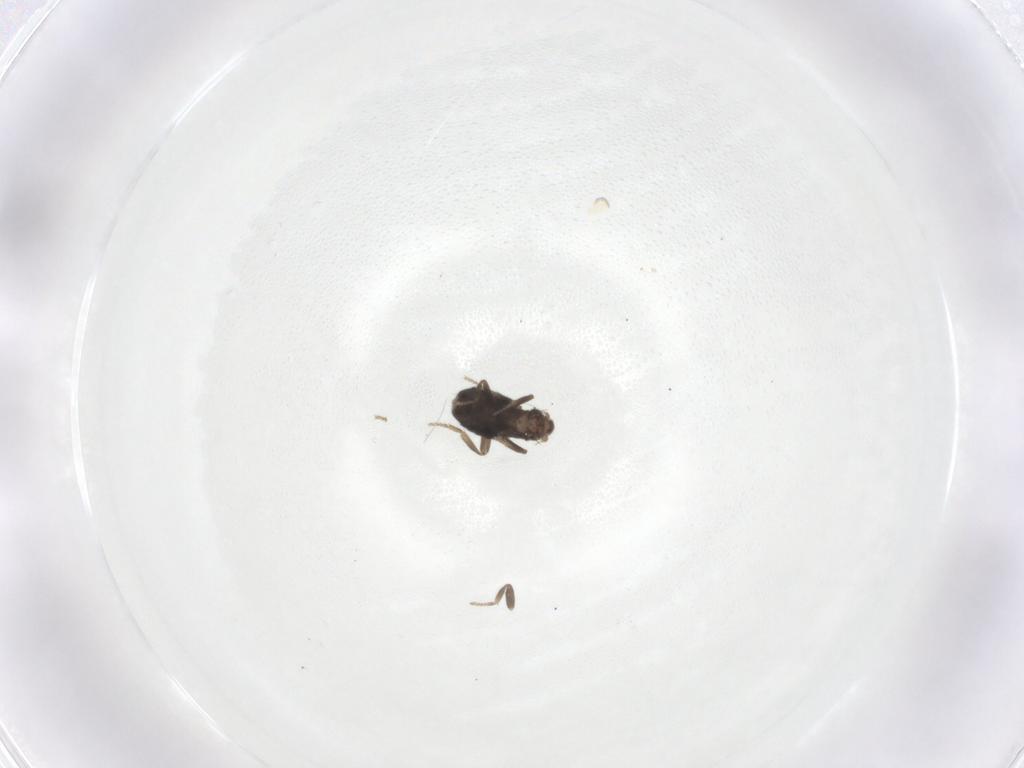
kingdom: Animalia
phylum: Arthropoda
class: Insecta
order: Diptera
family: Phoridae
